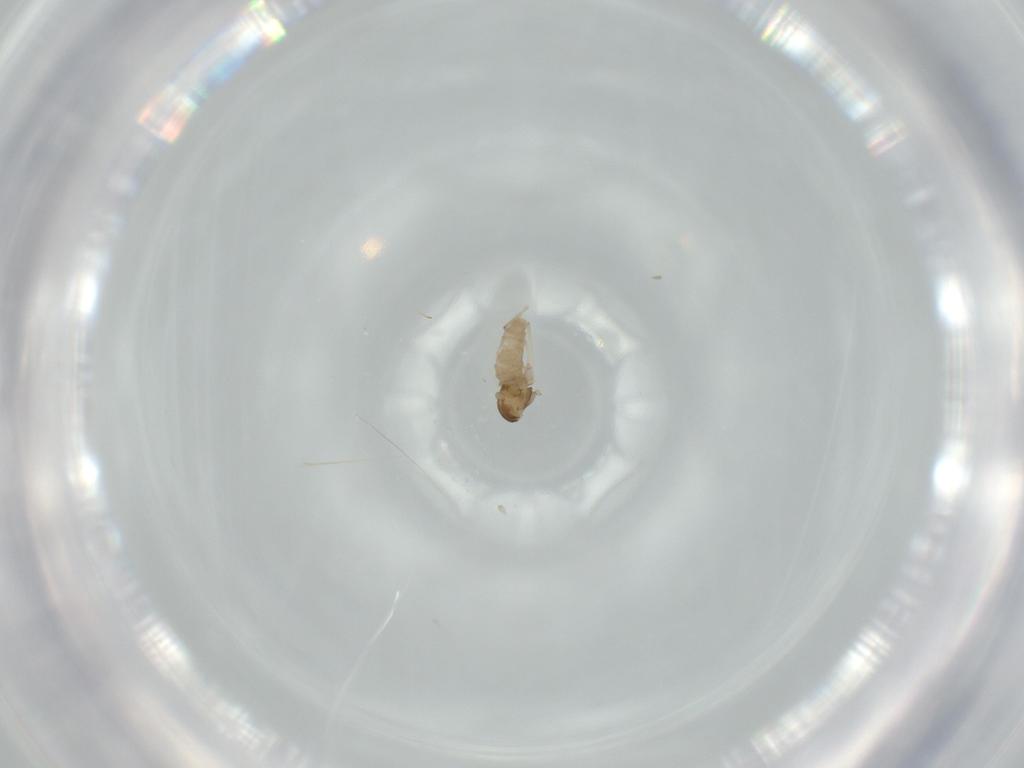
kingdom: Animalia
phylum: Arthropoda
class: Insecta
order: Diptera
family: Cecidomyiidae
